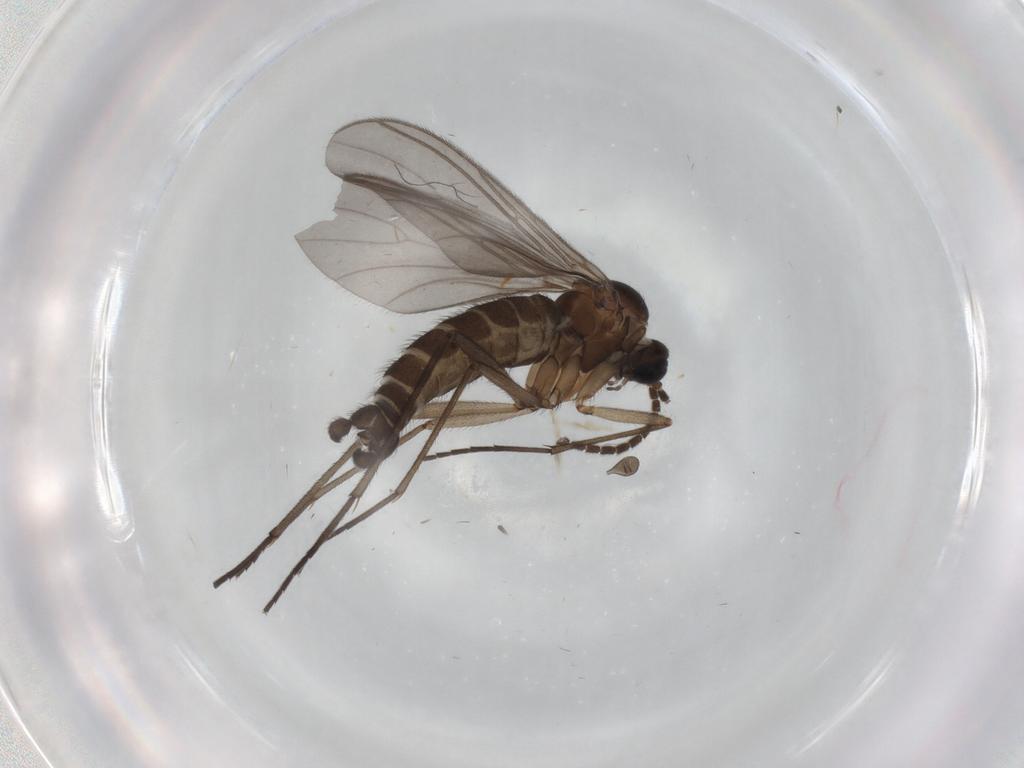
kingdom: Animalia
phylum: Arthropoda
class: Insecta
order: Diptera
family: Sciaridae
